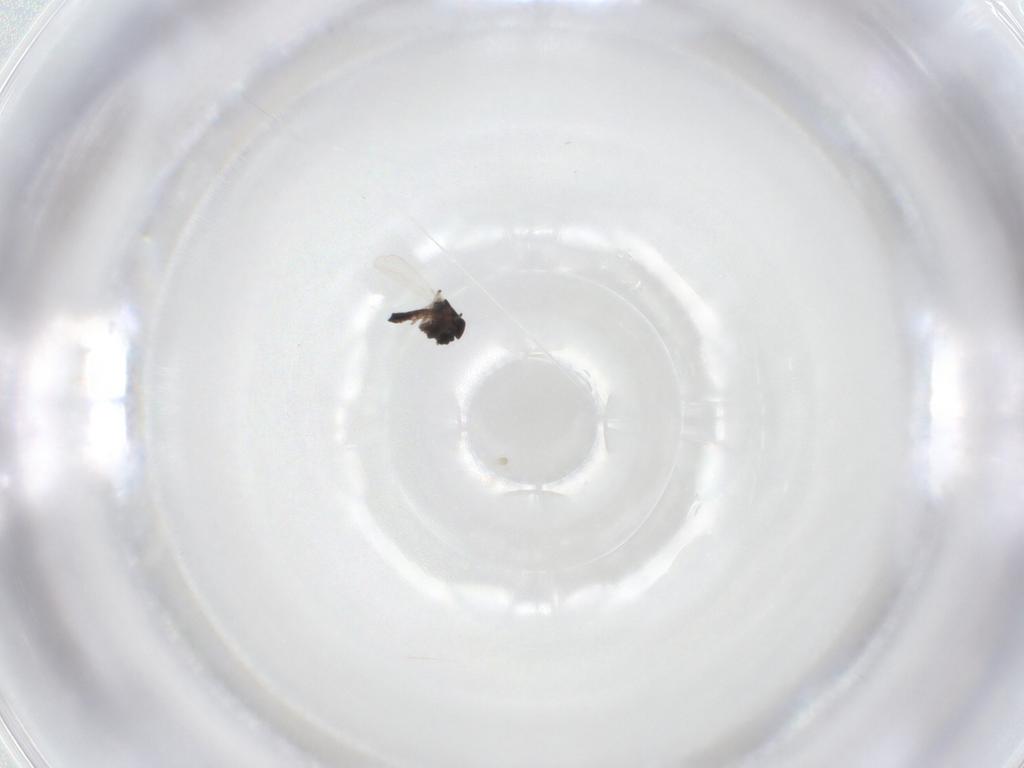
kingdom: Animalia
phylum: Arthropoda
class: Insecta
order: Diptera
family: Chironomidae
